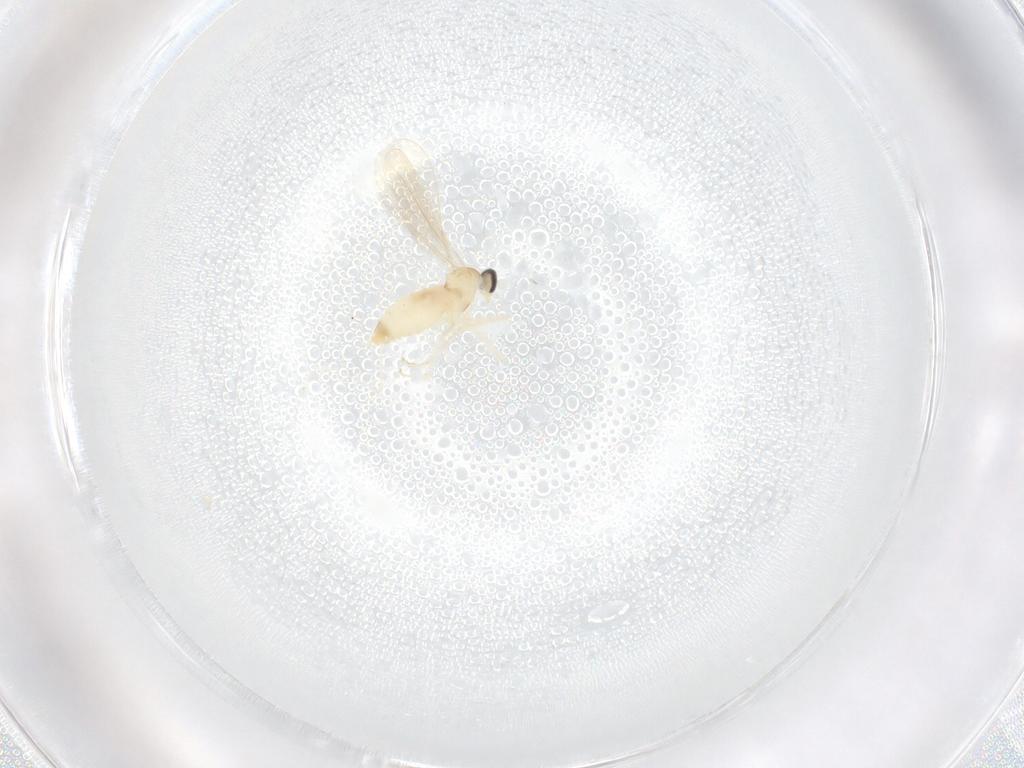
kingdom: Animalia
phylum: Arthropoda
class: Insecta
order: Diptera
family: Cecidomyiidae
